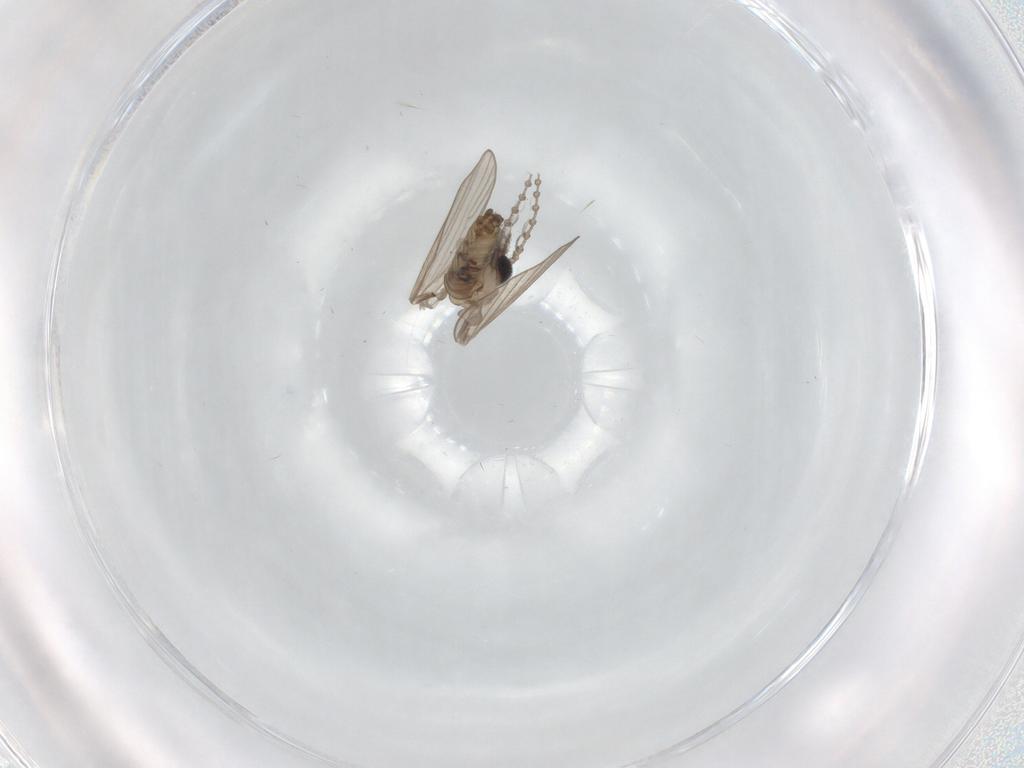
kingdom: Animalia
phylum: Arthropoda
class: Insecta
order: Diptera
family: Psychodidae
